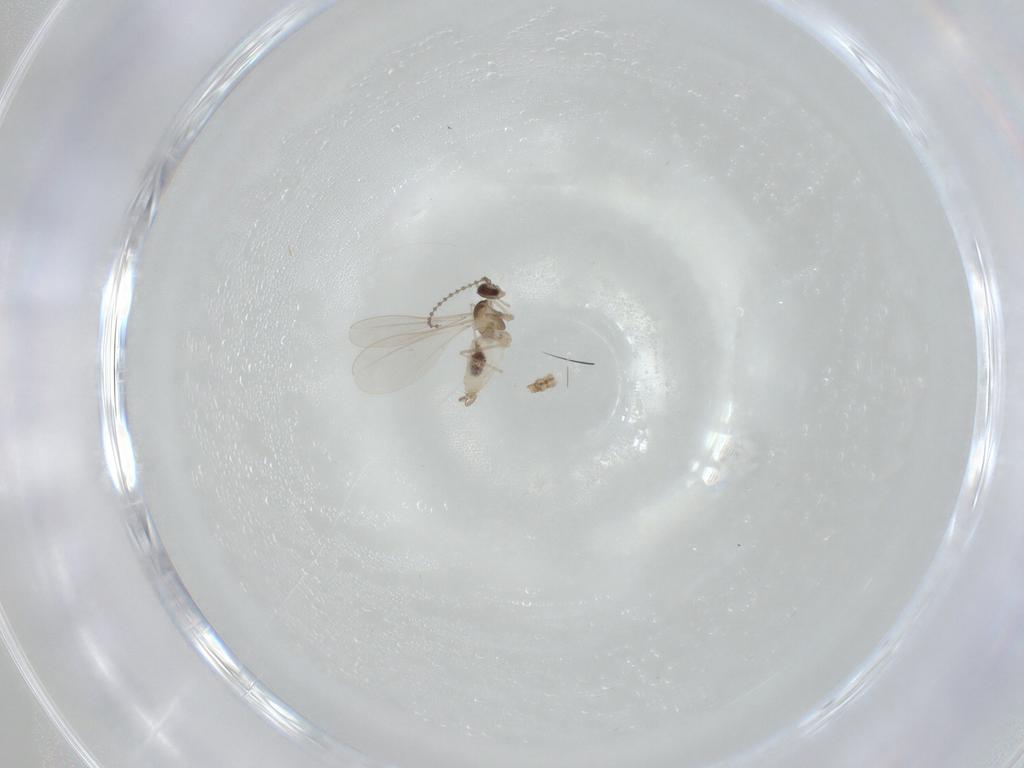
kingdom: Animalia
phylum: Arthropoda
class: Insecta
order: Diptera
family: Cecidomyiidae
